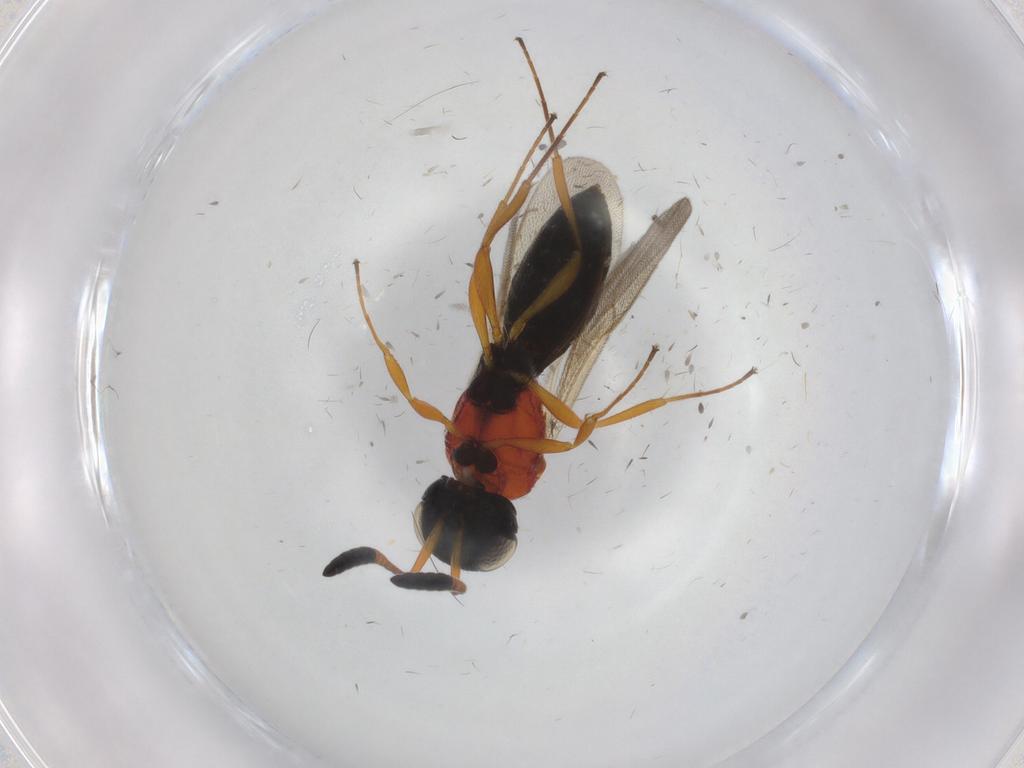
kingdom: Animalia
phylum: Arthropoda
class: Insecta
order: Hymenoptera
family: Scelionidae
